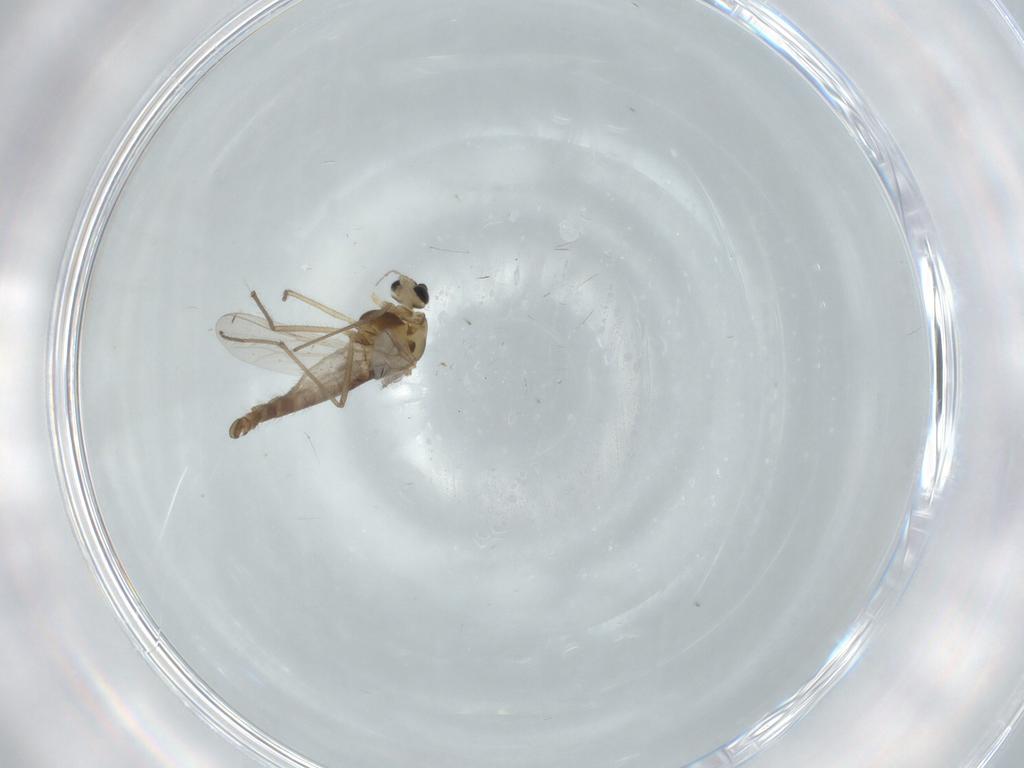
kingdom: Animalia
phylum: Arthropoda
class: Insecta
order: Diptera
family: Chironomidae
